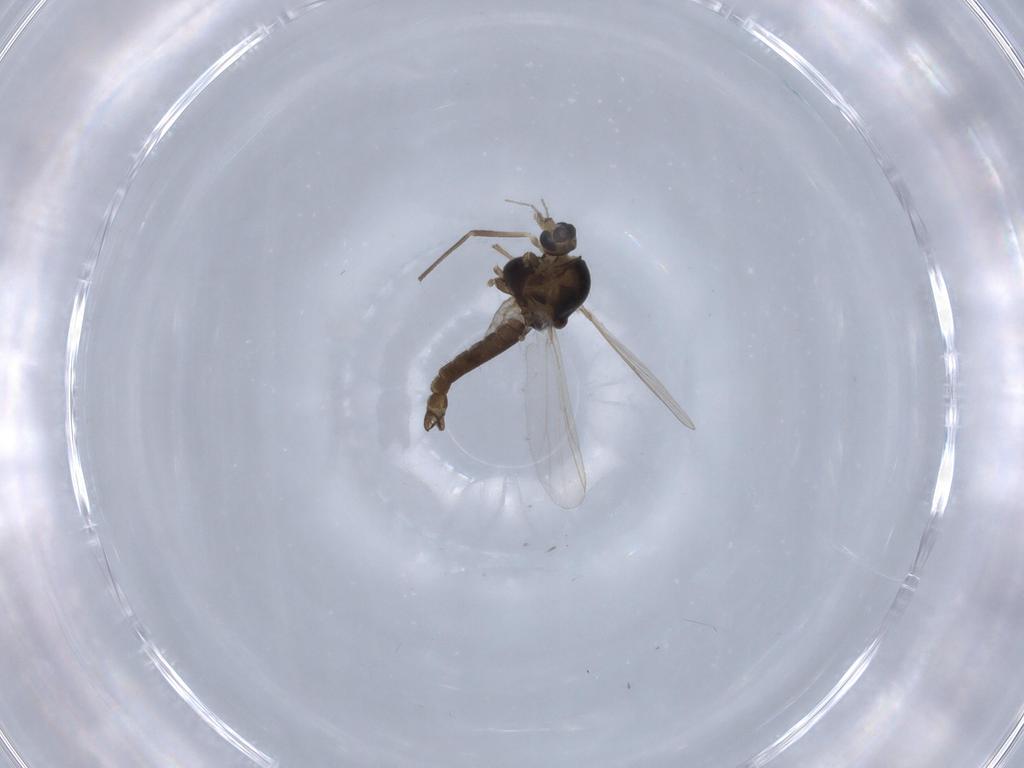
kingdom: Animalia
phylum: Arthropoda
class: Insecta
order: Diptera
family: Chironomidae
